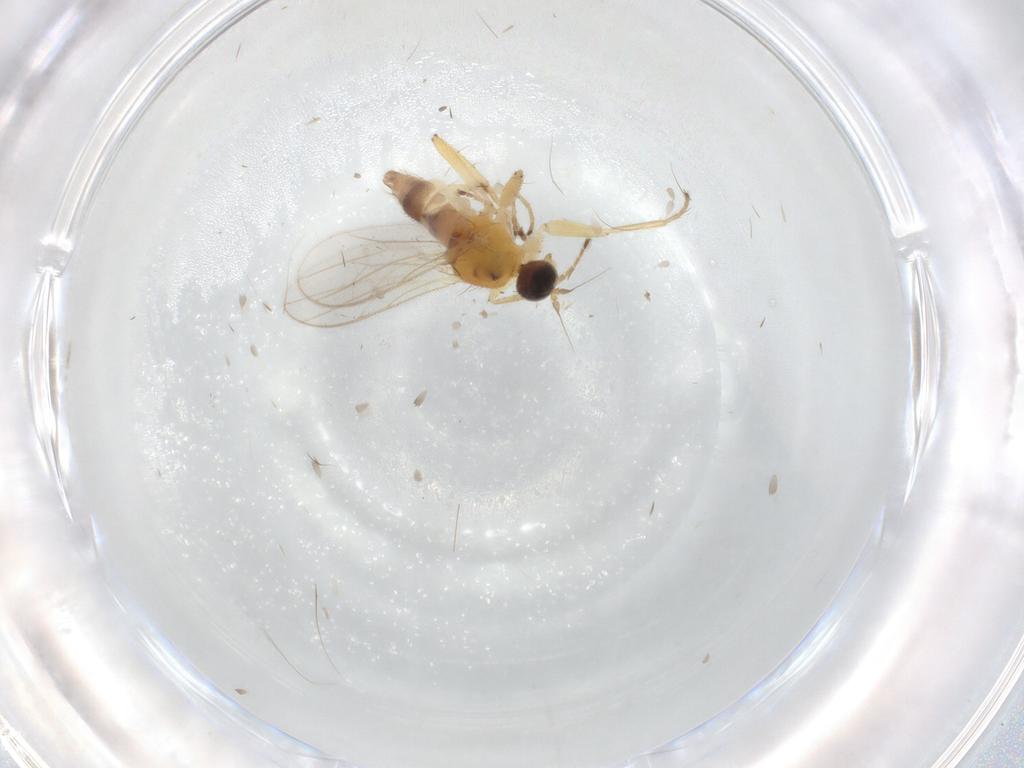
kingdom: Animalia
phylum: Arthropoda
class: Insecta
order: Diptera
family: Hybotidae
